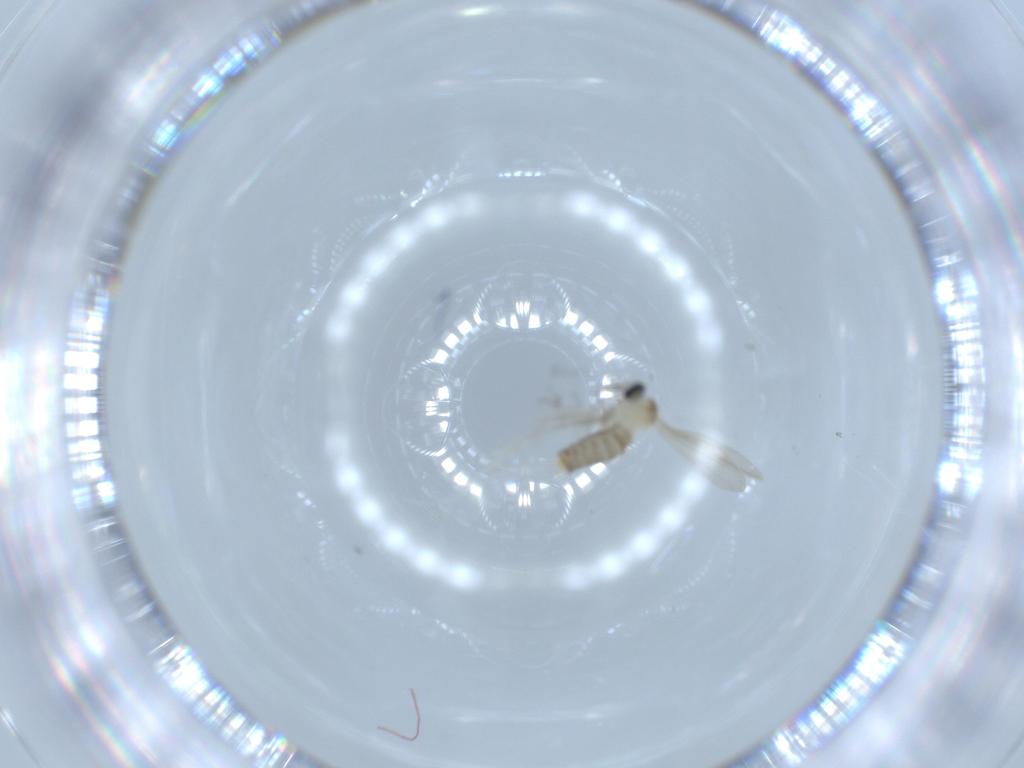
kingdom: Animalia
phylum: Arthropoda
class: Insecta
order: Diptera
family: Cecidomyiidae
